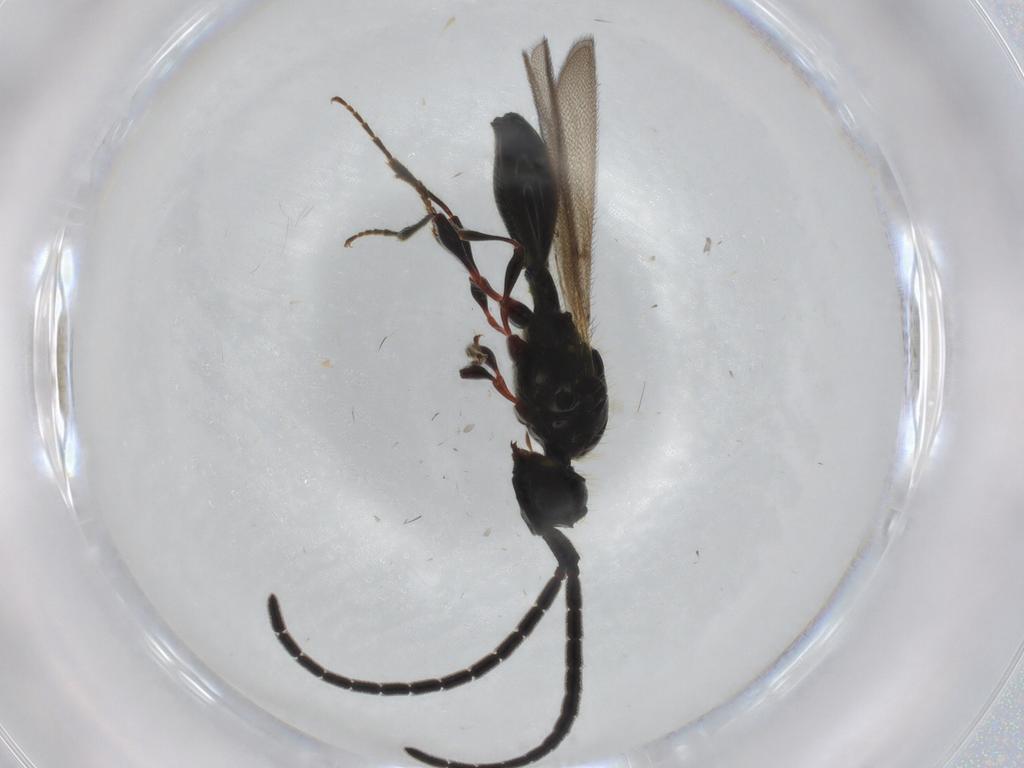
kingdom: Animalia
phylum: Arthropoda
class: Insecta
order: Hymenoptera
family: Diapriidae
